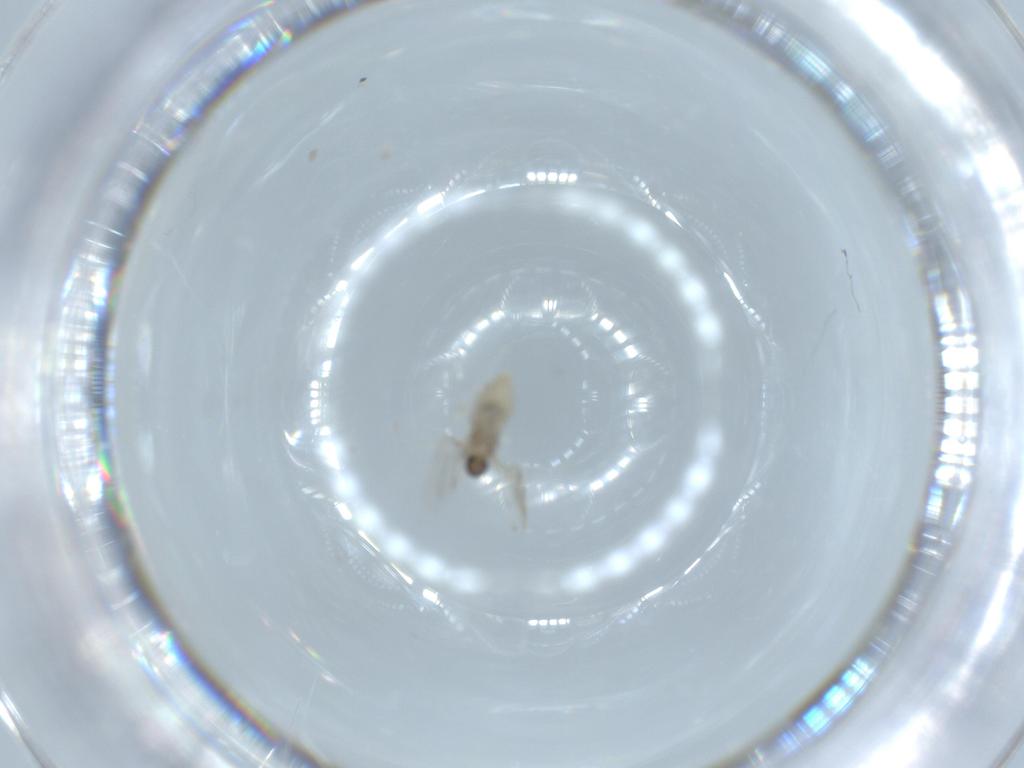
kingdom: Animalia
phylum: Arthropoda
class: Insecta
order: Diptera
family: Cecidomyiidae
